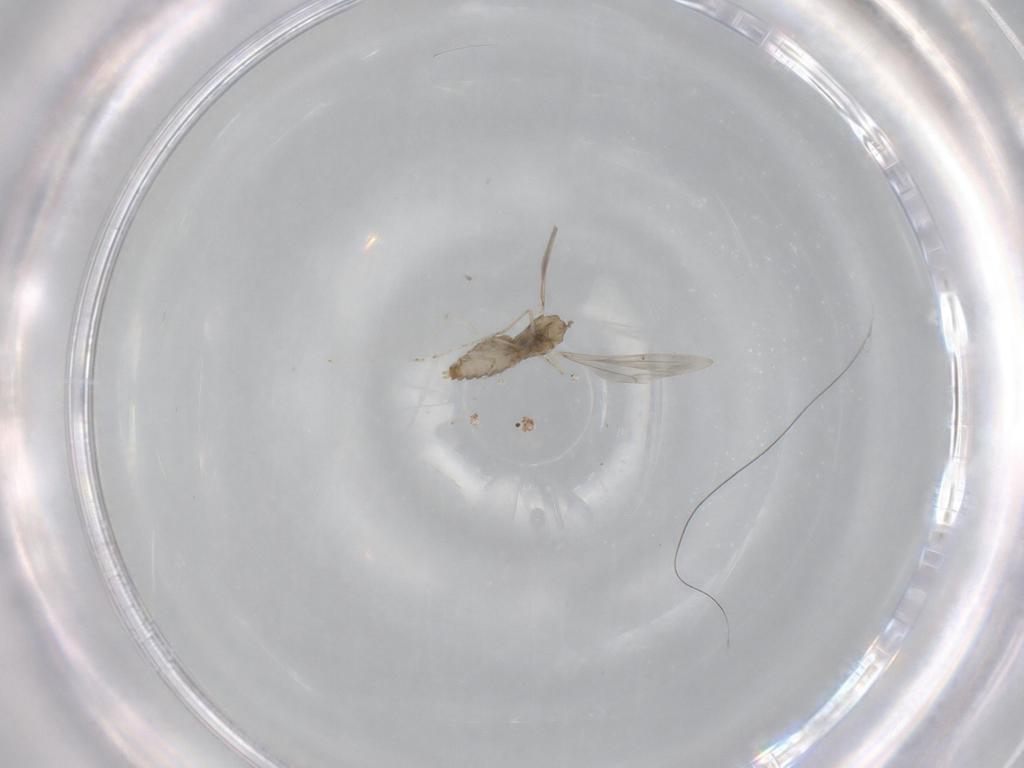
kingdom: Animalia
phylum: Arthropoda
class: Insecta
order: Diptera
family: Cecidomyiidae
